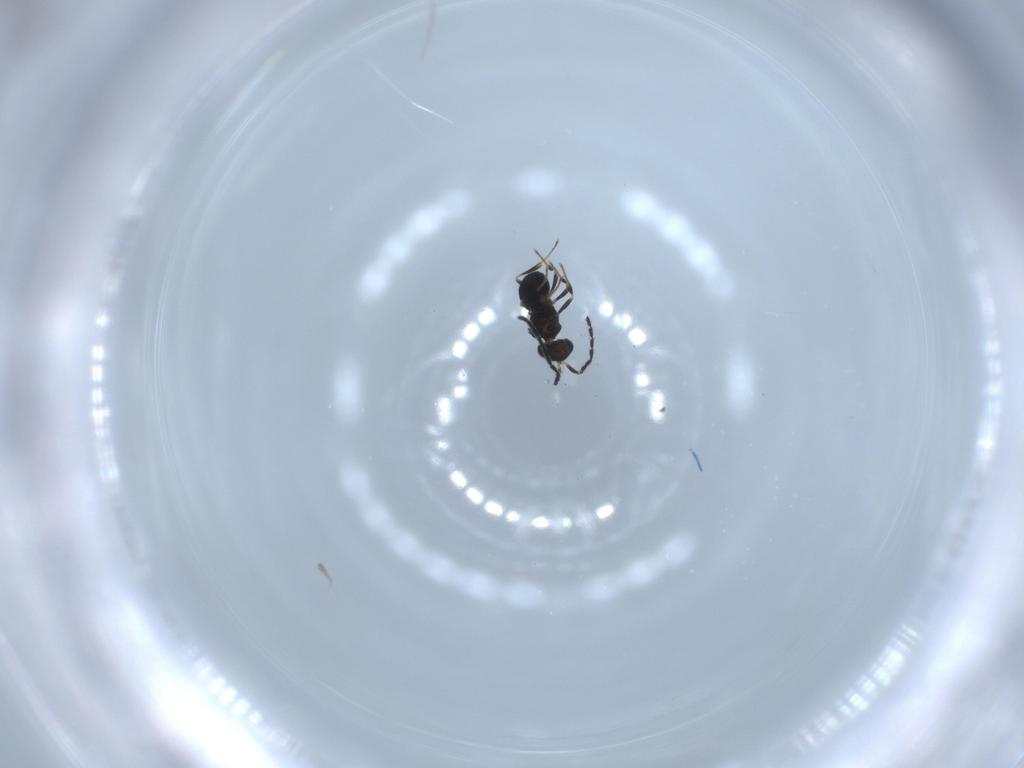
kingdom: Animalia
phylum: Arthropoda
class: Insecta
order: Hymenoptera
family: Scelionidae
